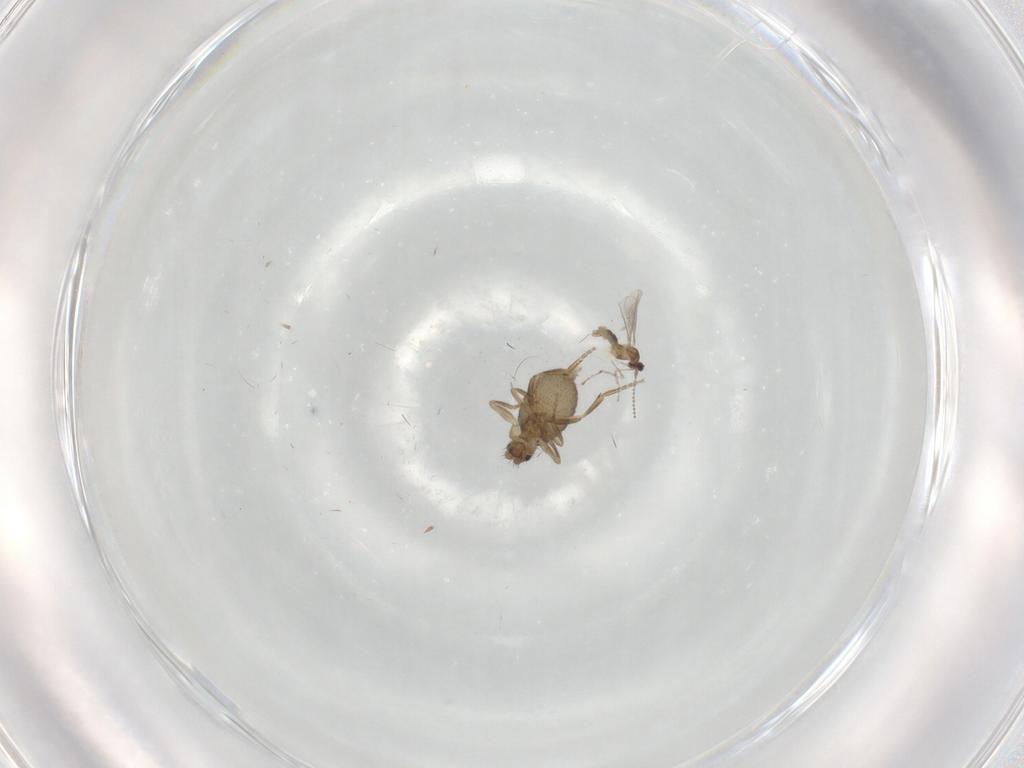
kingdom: Animalia
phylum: Arthropoda
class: Insecta
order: Diptera
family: Cecidomyiidae
